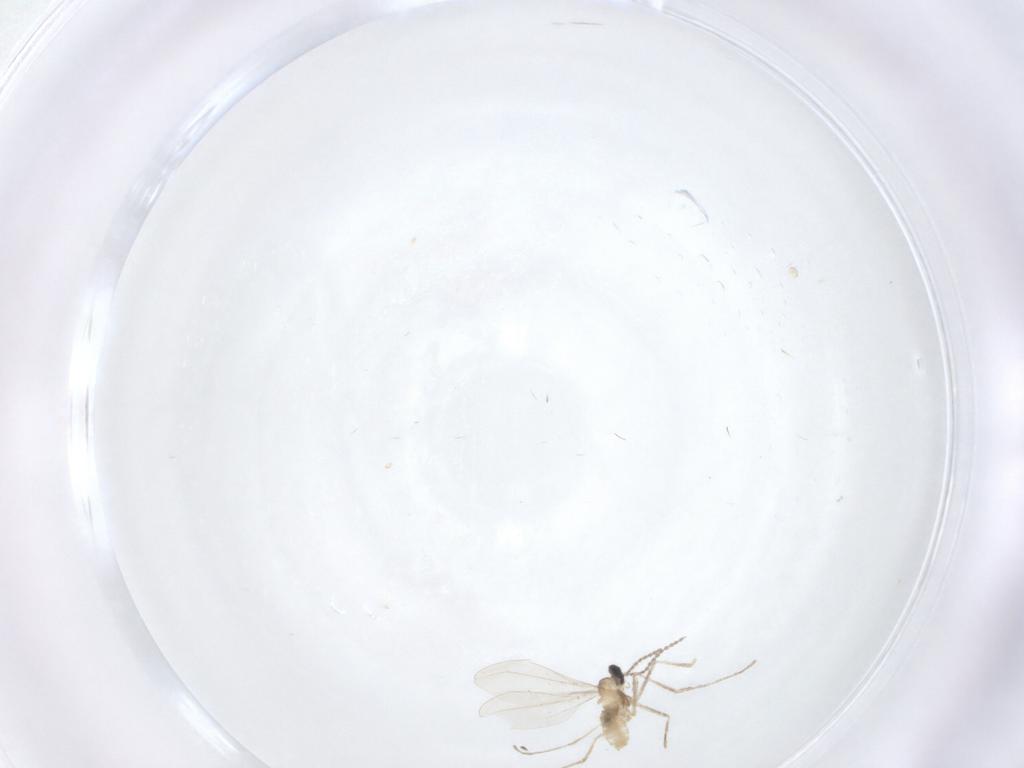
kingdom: Animalia
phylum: Arthropoda
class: Insecta
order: Diptera
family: Cecidomyiidae
